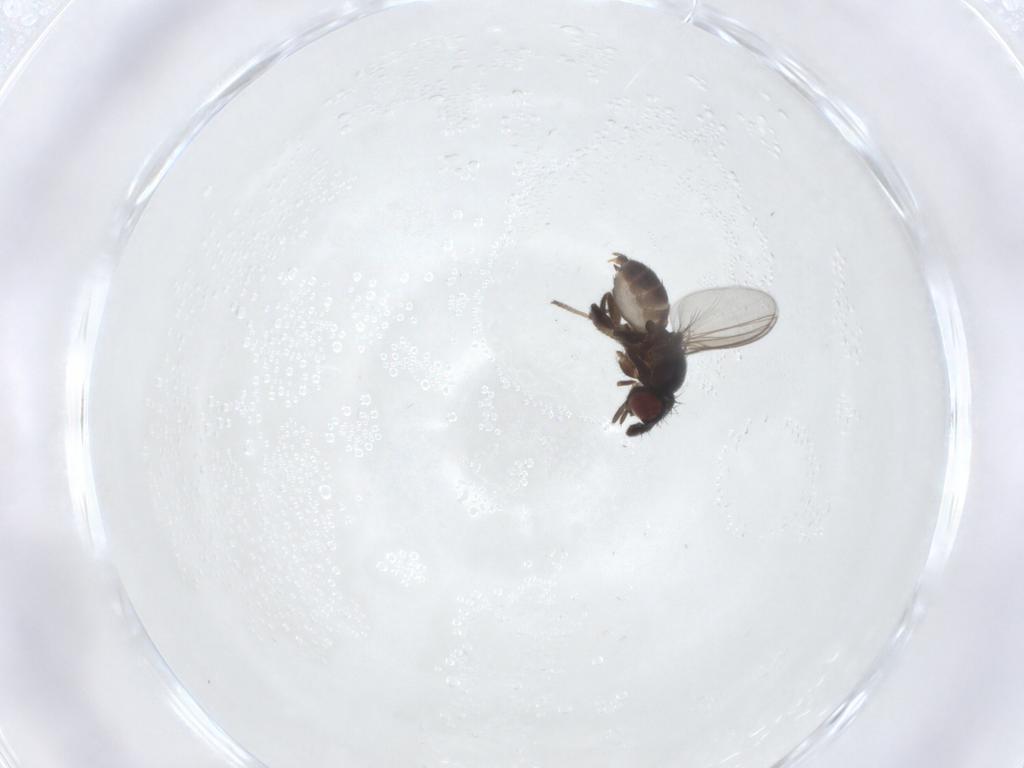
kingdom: Animalia
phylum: Arthropoda
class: Insecta
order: Diptera
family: Milichiidae
